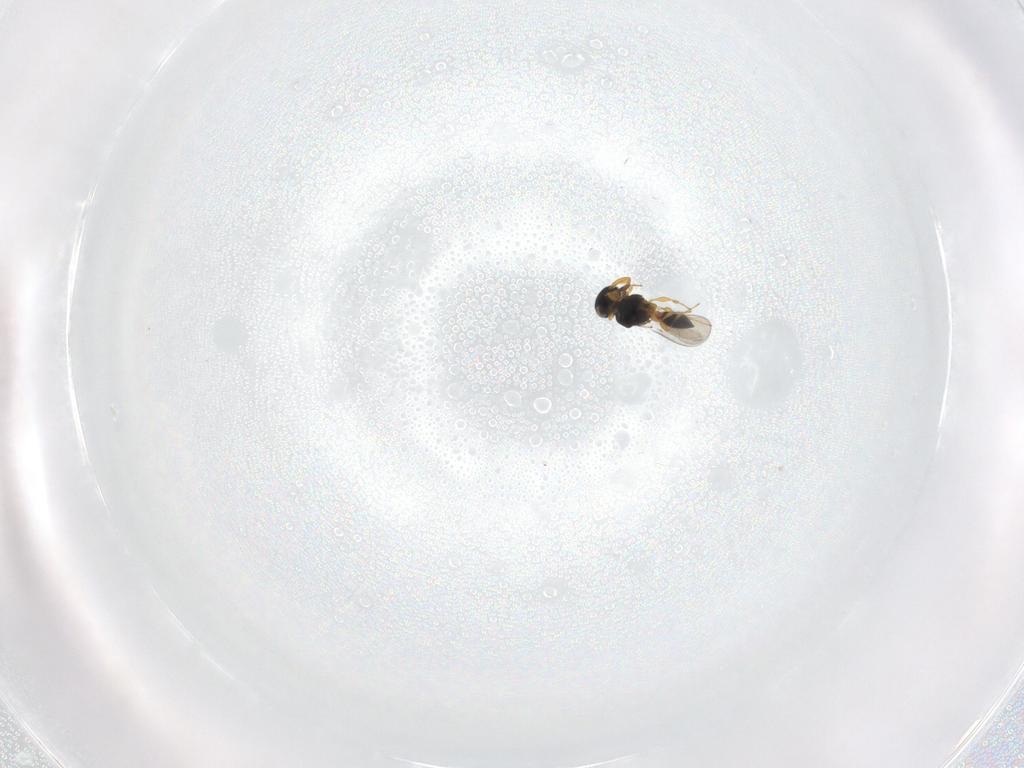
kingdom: Animalia
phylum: Arthropoda
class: Insecta
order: Hymenoptera
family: Platygastridae
